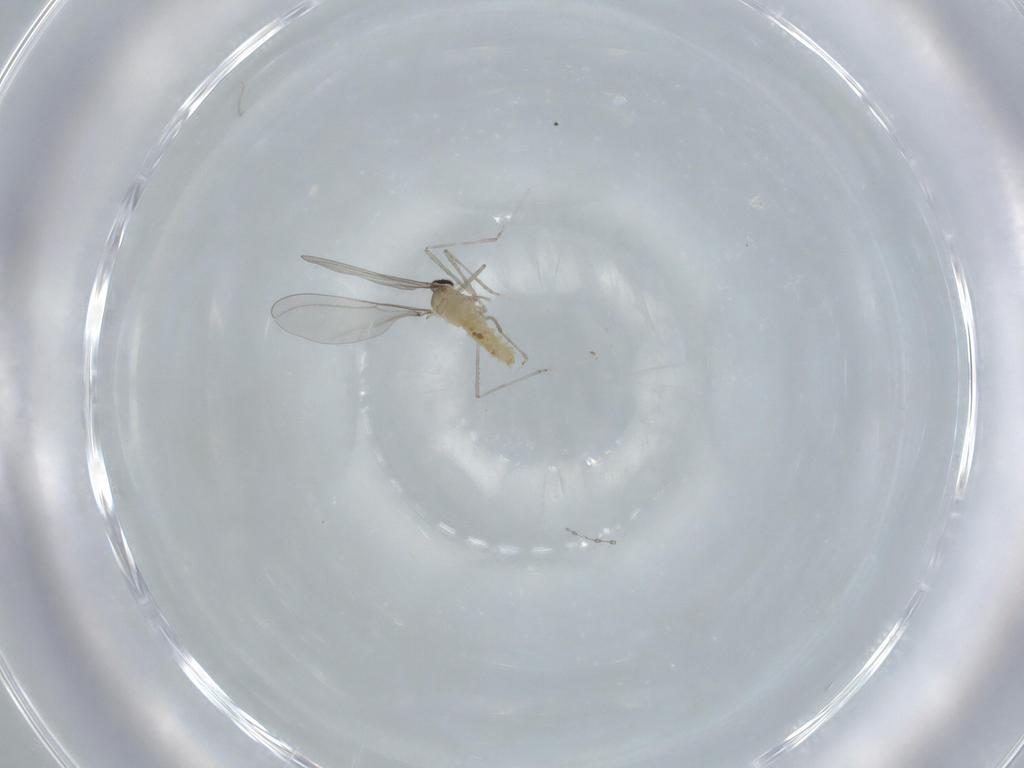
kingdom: Animalia
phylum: Arthropoda
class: Insecta
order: Diptera
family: Cecidomyiidae
